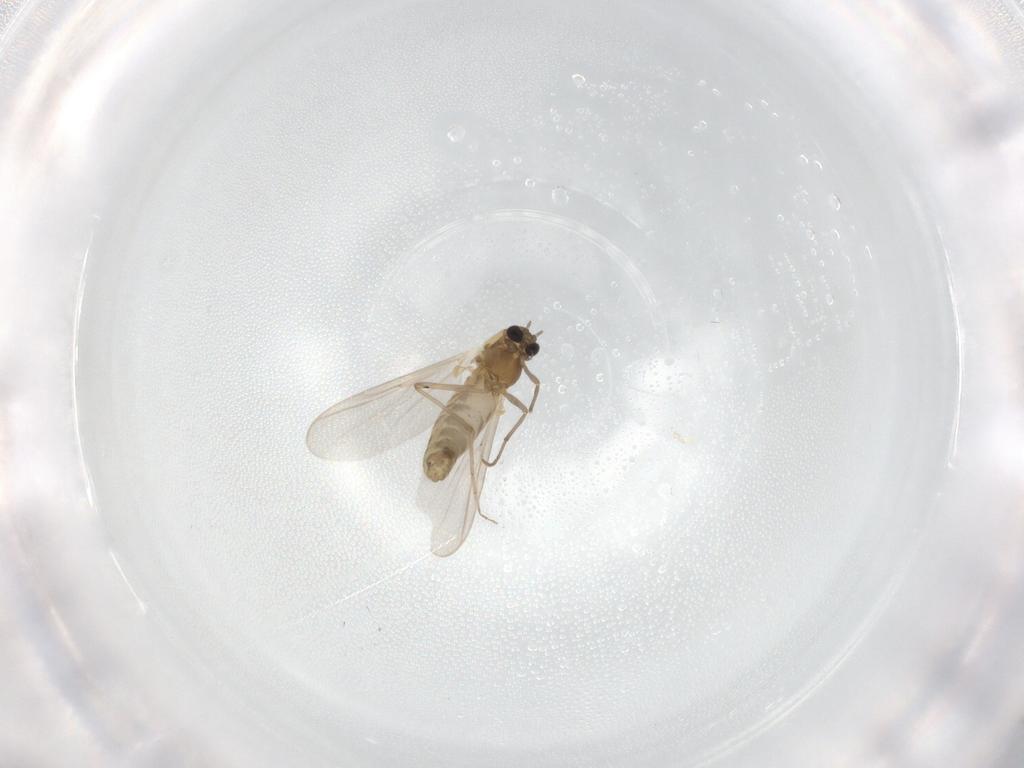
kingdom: Animalia
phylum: Arthropoda
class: Insecta
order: Diptera
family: Chironomidae
